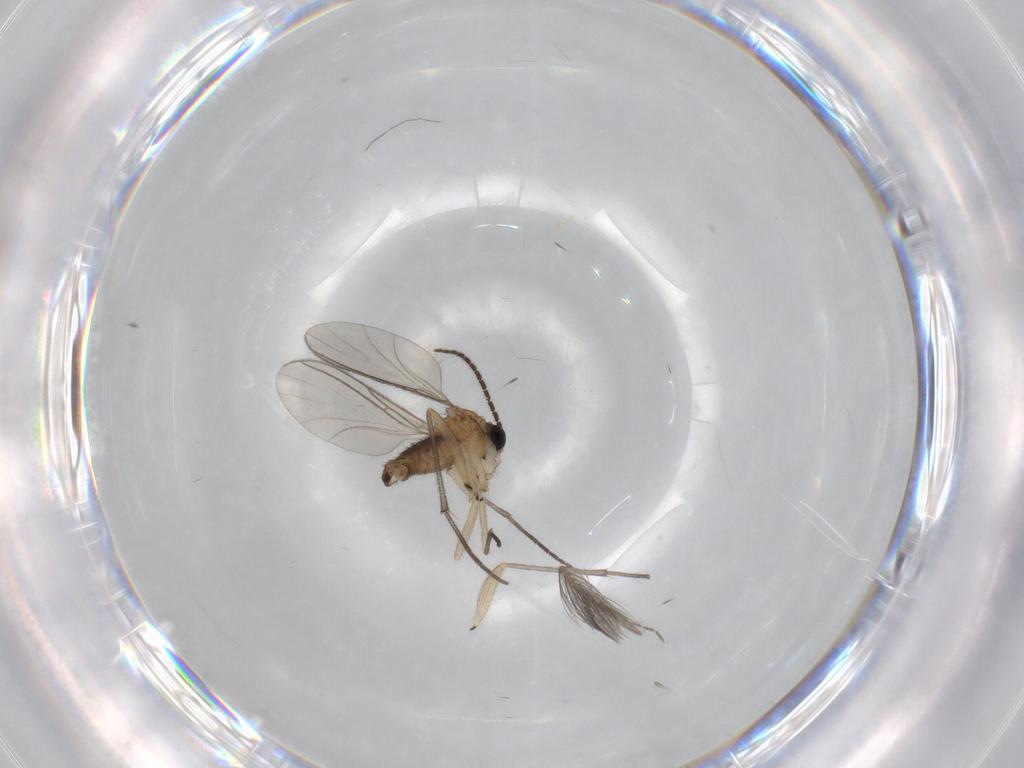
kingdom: Animalia
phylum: Arthropoda
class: Insecta
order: Diptera
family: Sciaridae
